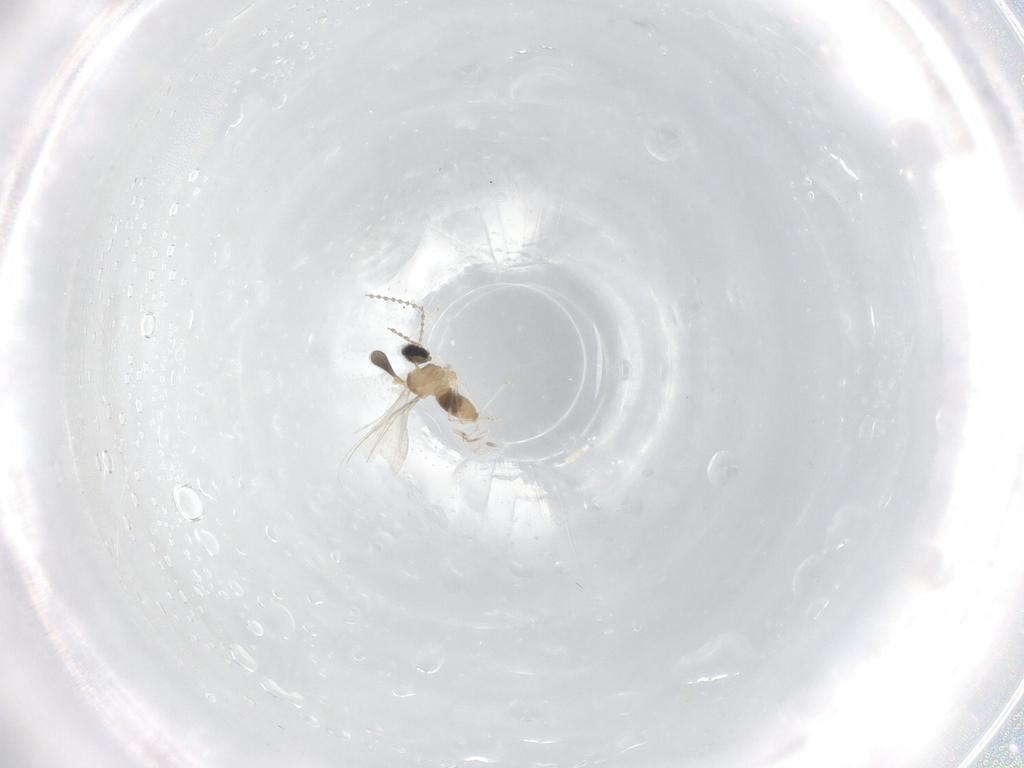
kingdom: Animalia
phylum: Arthropoda
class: Insecta
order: Diptera
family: Cecidomyiidae
